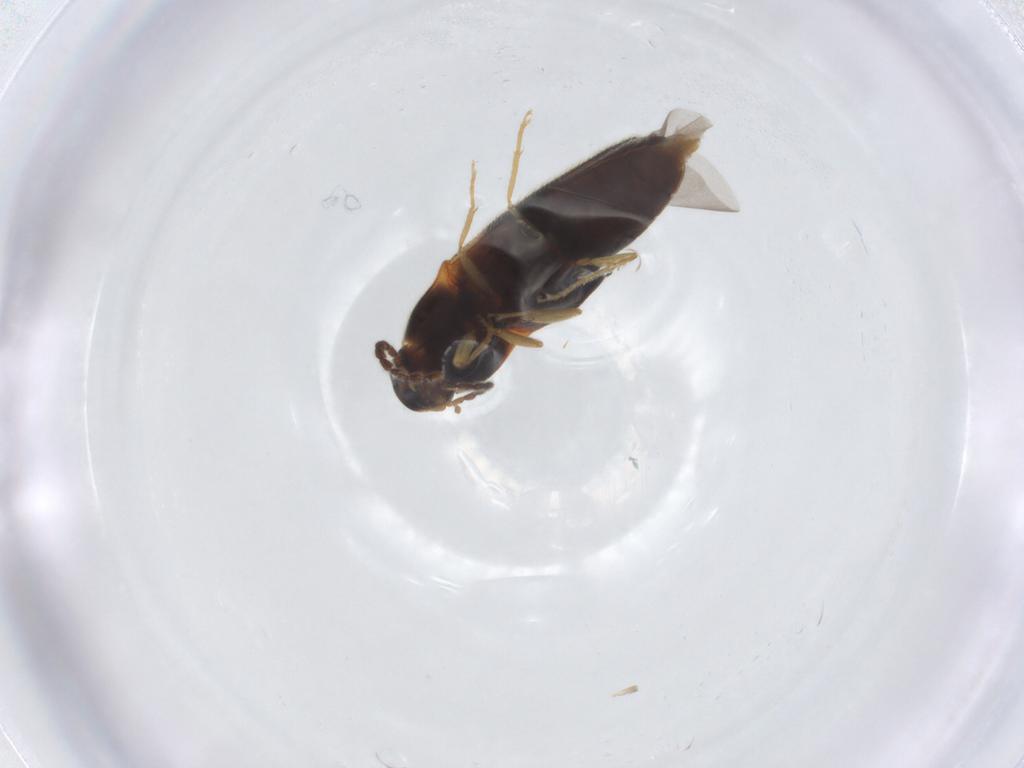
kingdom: Animalia
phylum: Arthropoda
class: Insecta
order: Coleoptera
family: Elateridae
